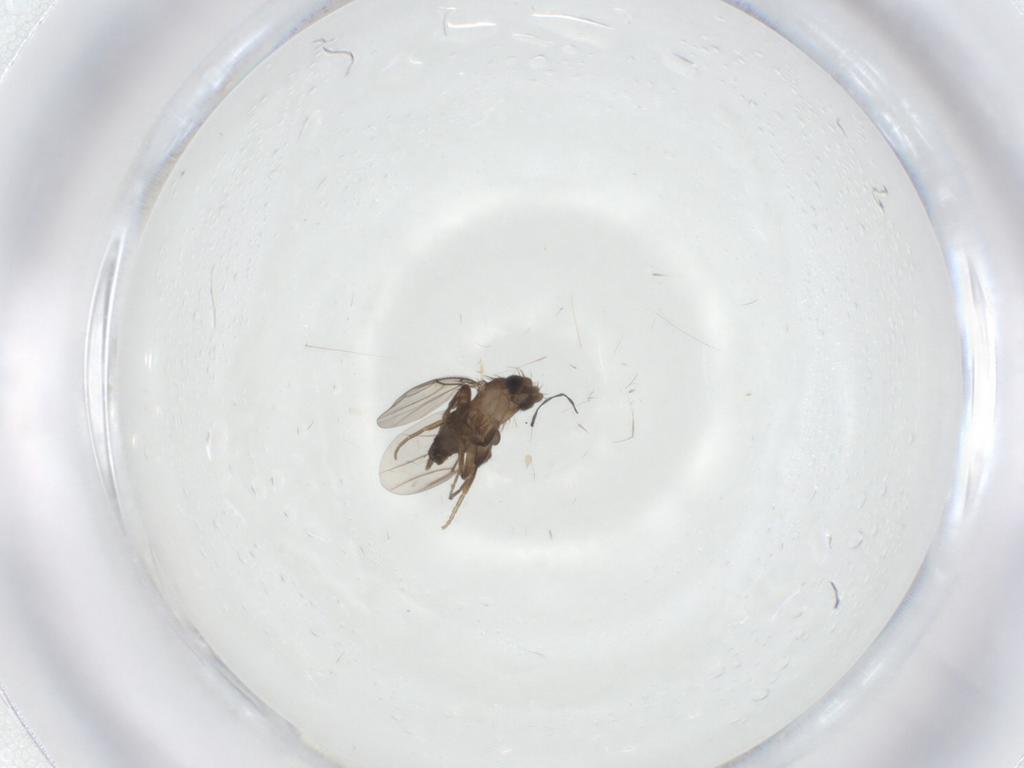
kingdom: Animalia
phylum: Arthropoda
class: Insecta
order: Diptera
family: Phoridae
